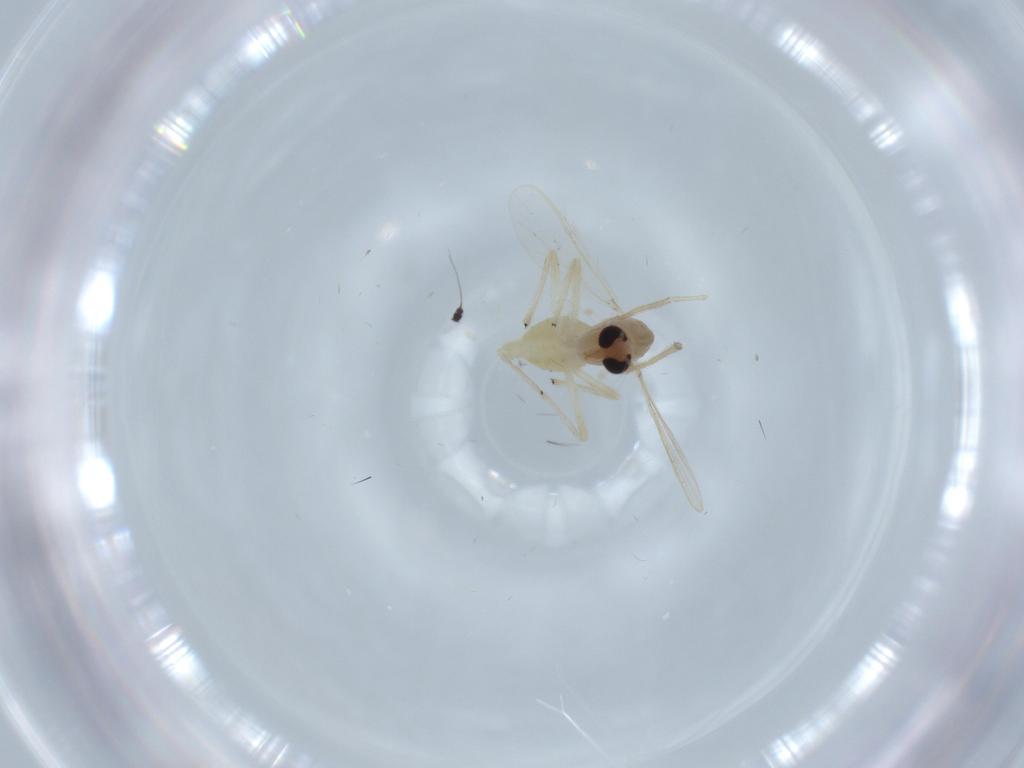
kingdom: Animalia
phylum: Arthropoda
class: Insecta
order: Diptera
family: Chironomidae
